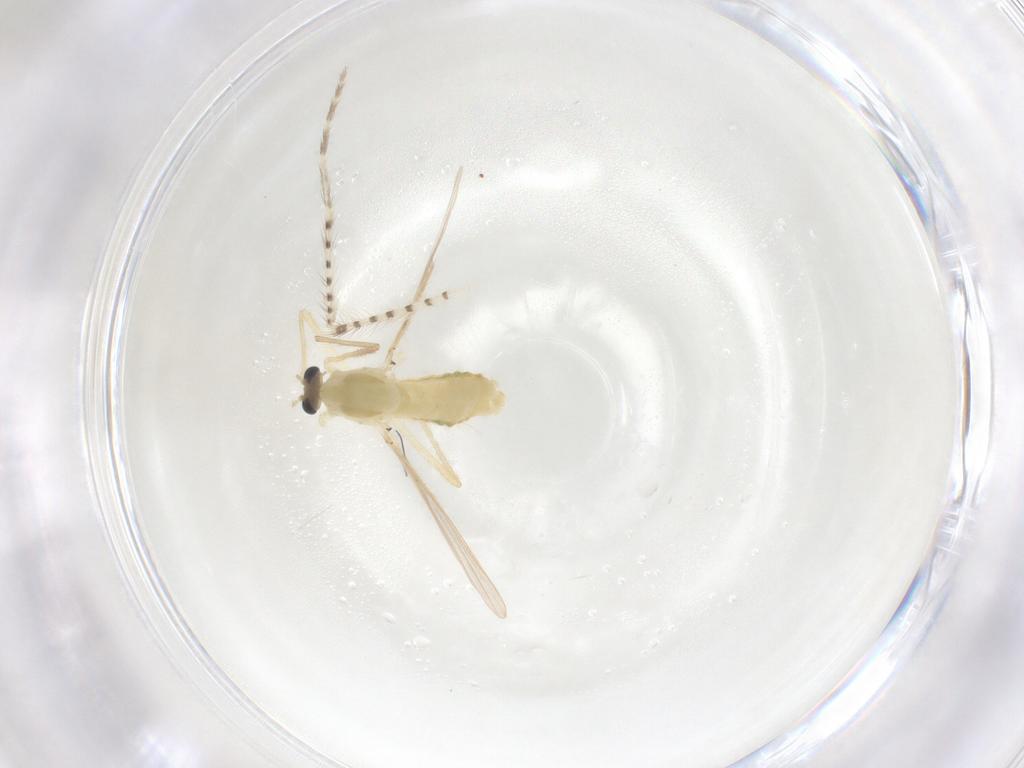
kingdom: Animalia
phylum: Arthropoda
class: Insecta
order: Diptera
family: Chironomidae
